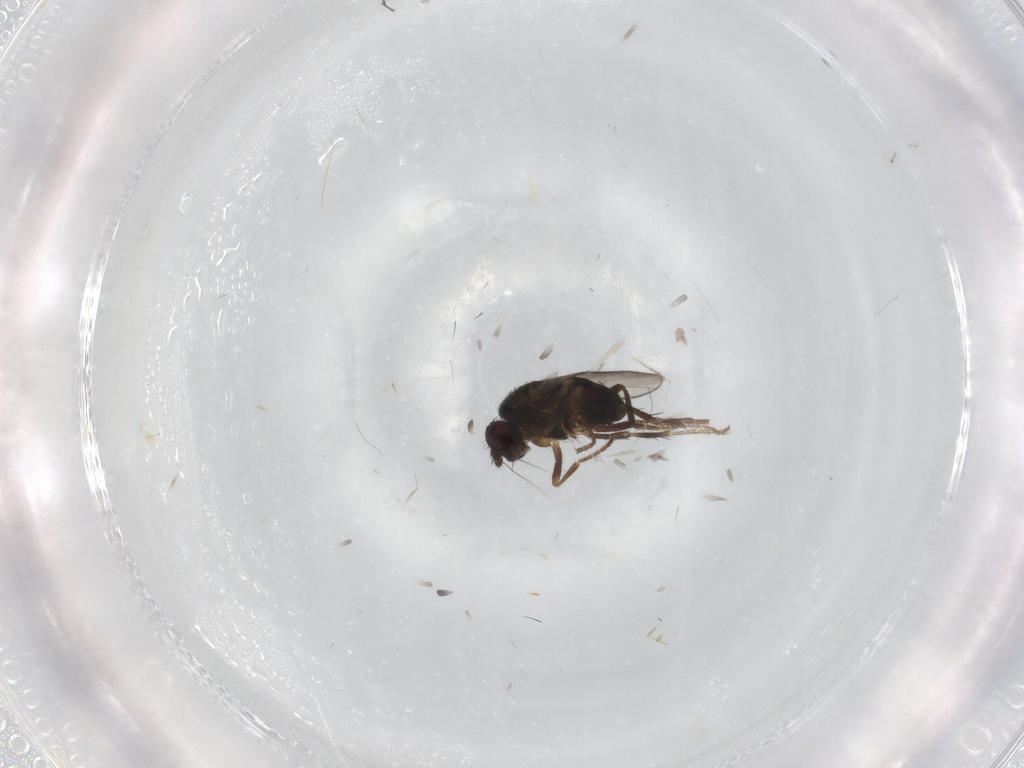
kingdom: Animalia
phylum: Arthropoda
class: Insecta
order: Diptera
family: Sphaeroceridae
